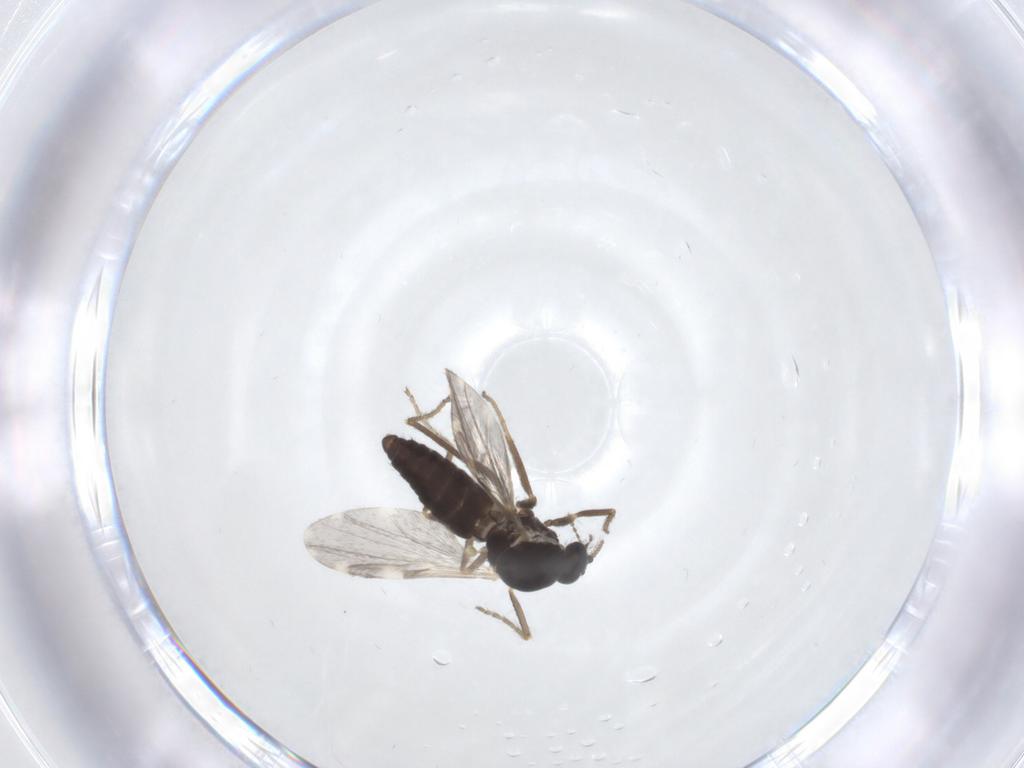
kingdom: Animalia
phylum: Arthropoda
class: Insecta
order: Diptera
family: Ceratopogonidae
